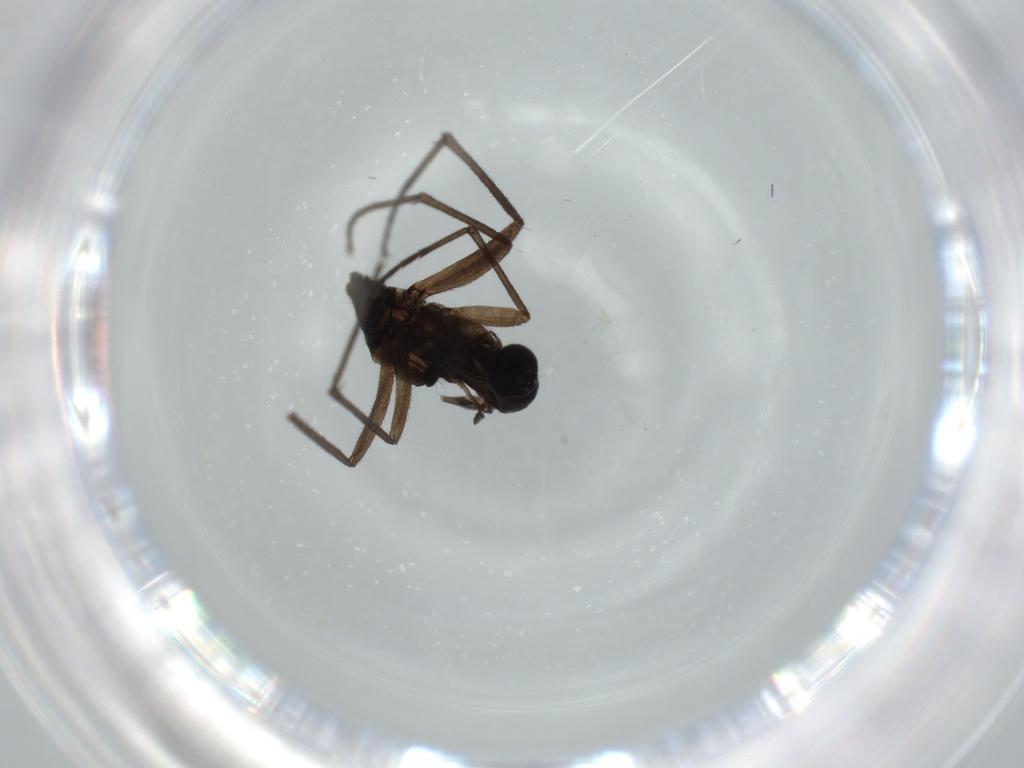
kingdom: Animalia
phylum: Arthropoda
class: Insecta
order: Diptera
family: Sciaridae
